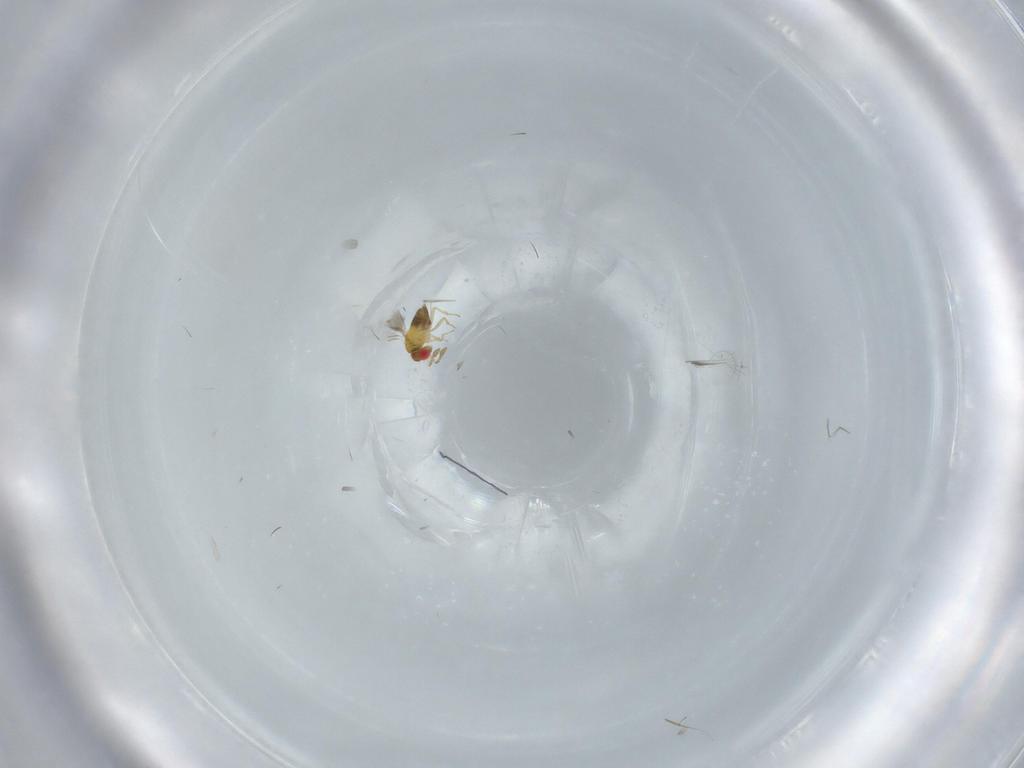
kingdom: Animalia
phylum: Arthropoda
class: Insecta
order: Hymenoptera
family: Trichogrammatidae
